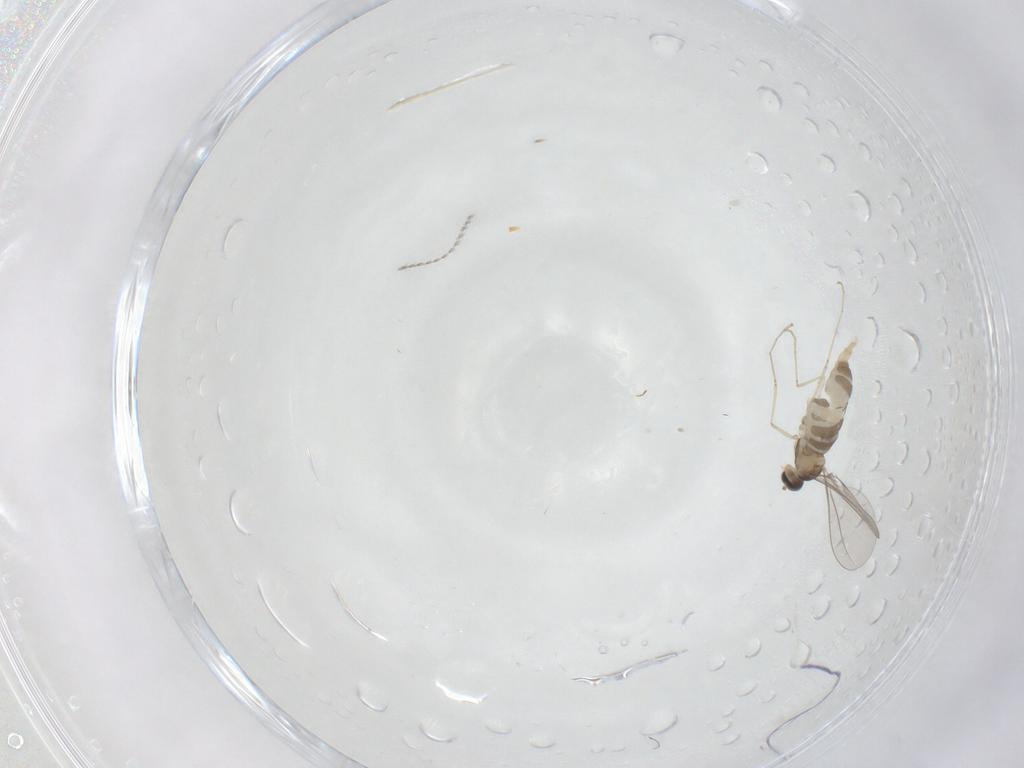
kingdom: Animalia
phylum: Arthropoda
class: Insecta
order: Diptera
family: Cecidomyiidae
